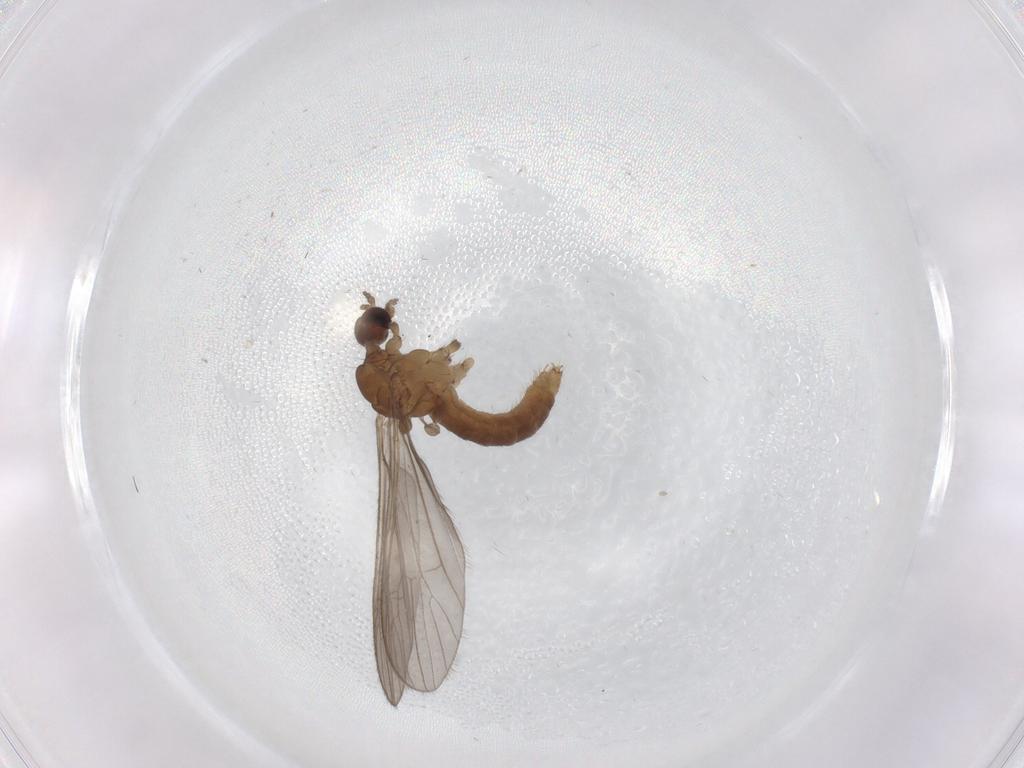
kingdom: Animalia
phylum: Arthropoda
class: Insecta
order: Diptera
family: Limoniidae
